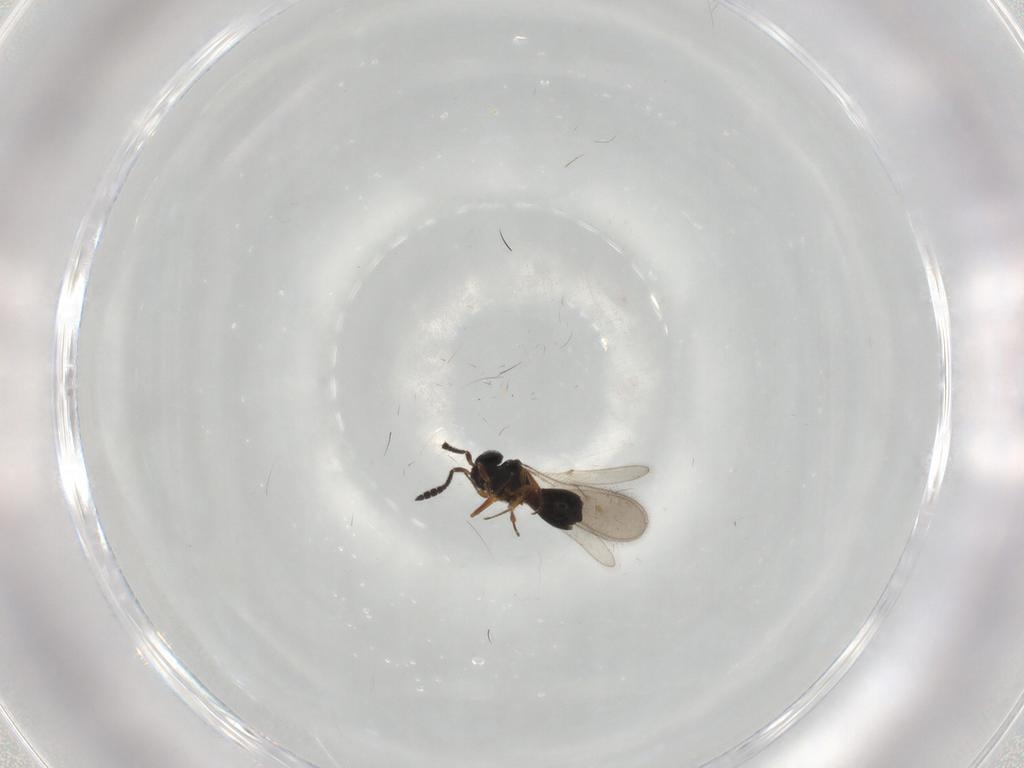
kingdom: Animalia
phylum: Arthropoda
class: Insecta
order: Hymenoptera
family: Scelionidae
